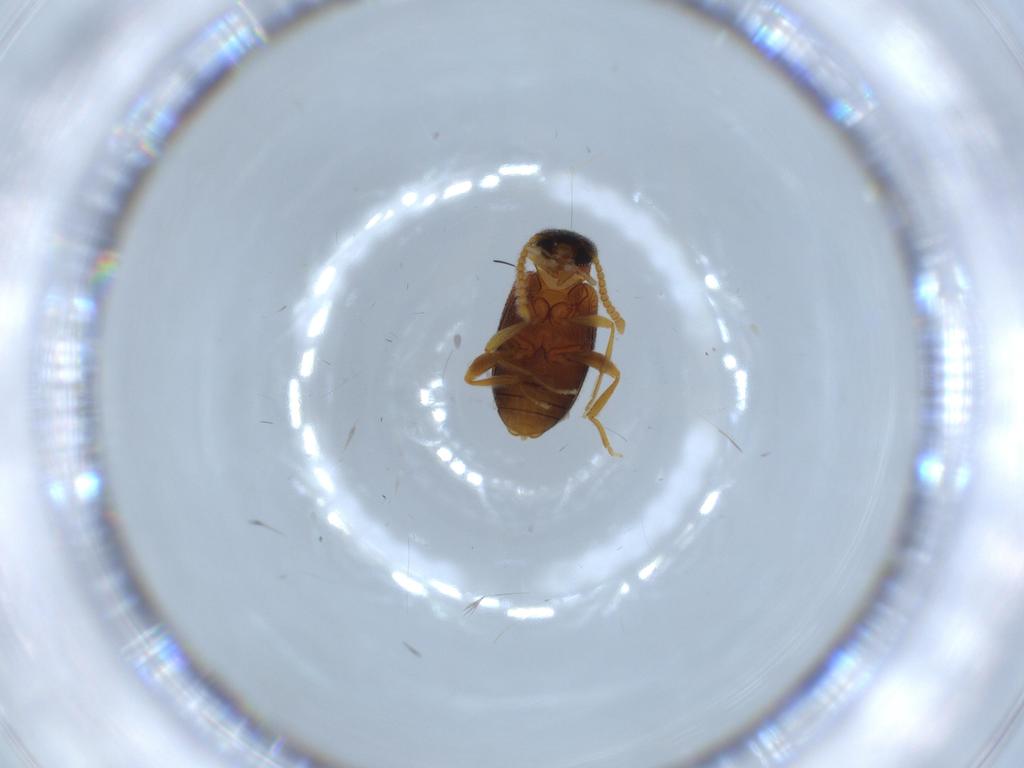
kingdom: Animalia
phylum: Arthropoda
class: Insecta
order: Coleoptera
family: Aderidae
